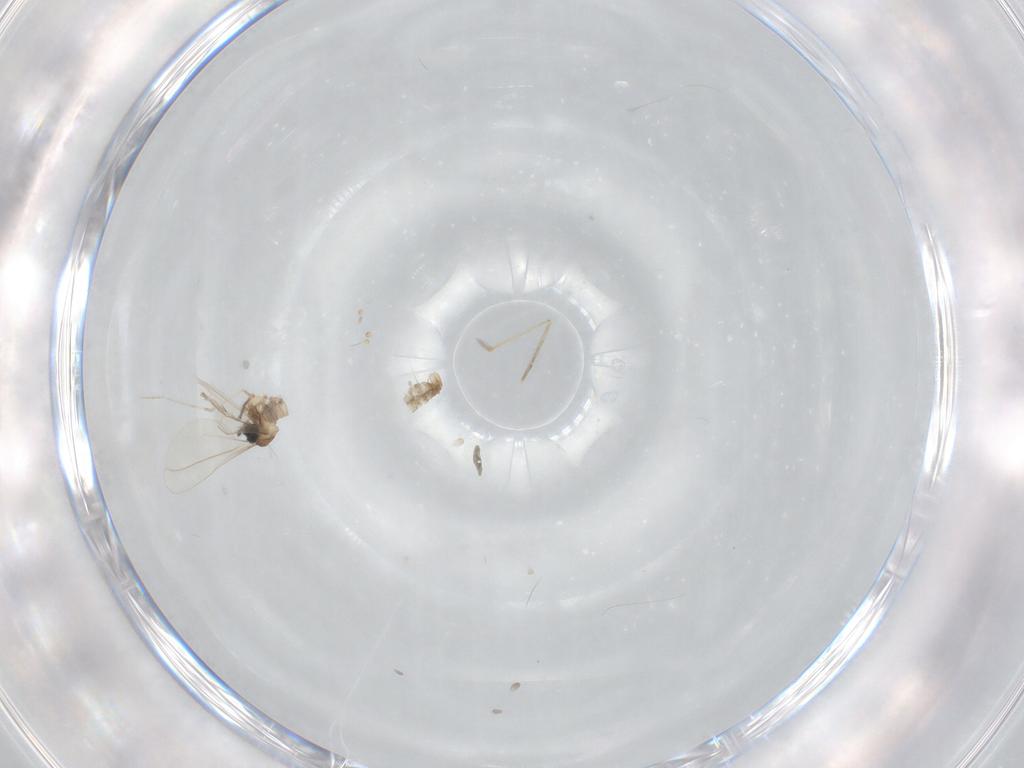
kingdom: Animalia
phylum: Arthropoda
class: Insecta
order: Diptera
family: Cecidomyiidae
